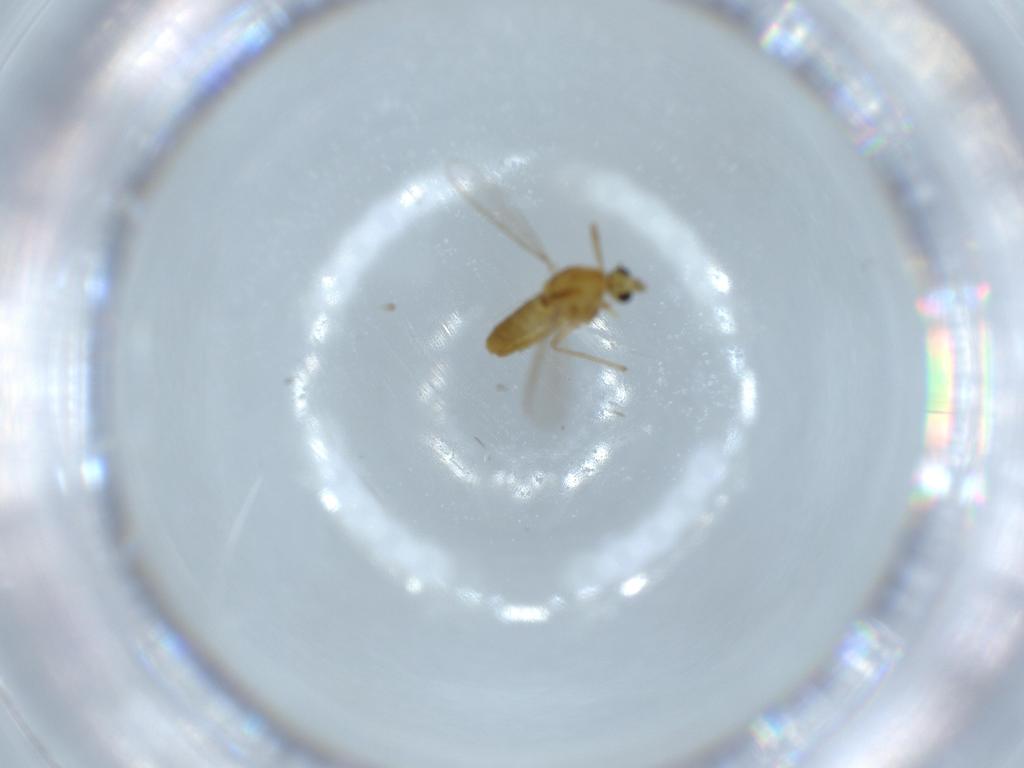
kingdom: Animalia
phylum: Arthropoda
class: Insecta
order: Diptera
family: Chironomidae
